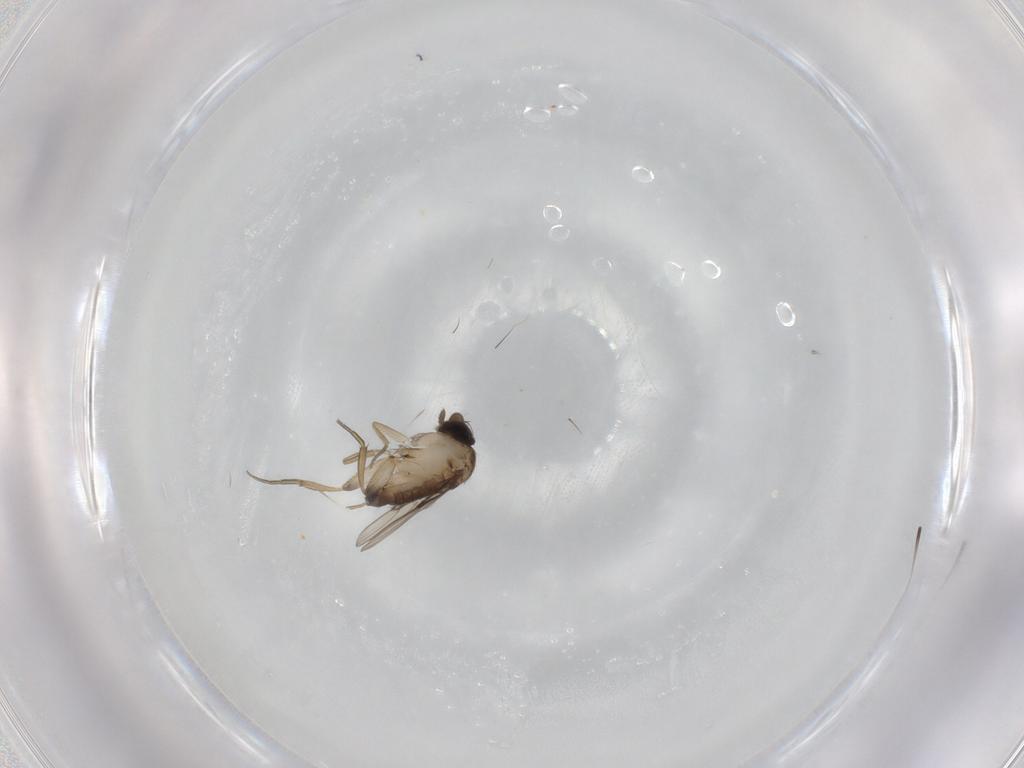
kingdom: Animalia
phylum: Arthropoda
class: Insecta
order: Diptera
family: Phoridae
